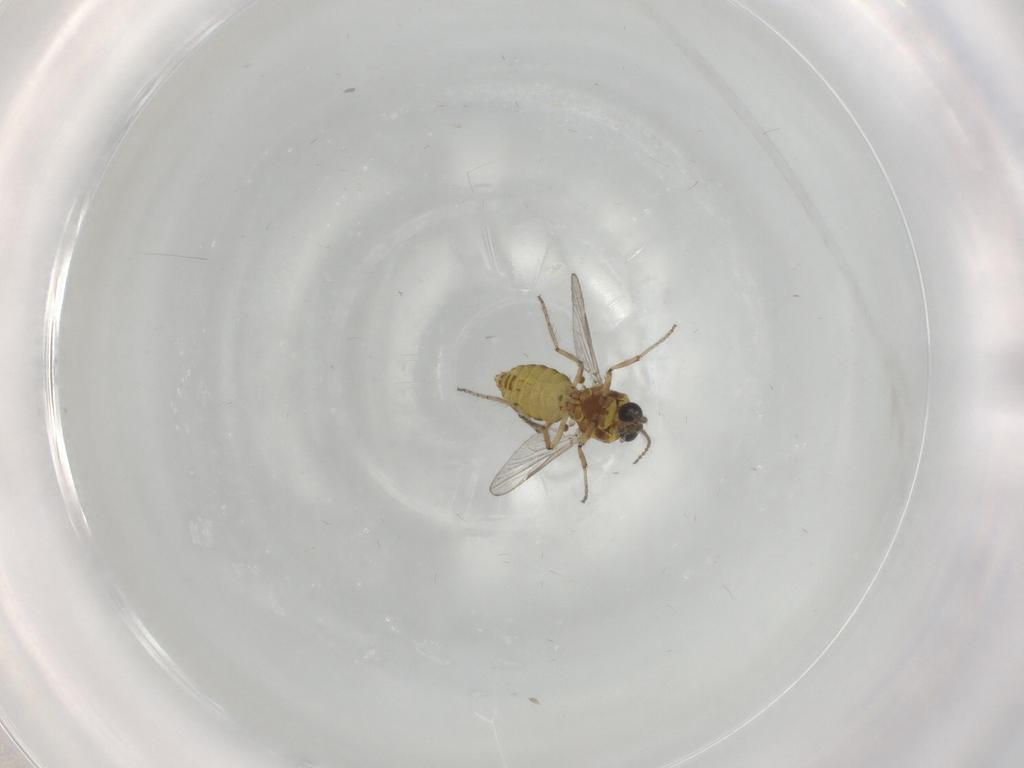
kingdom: Animalia
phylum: Arthropoda
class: Insecta
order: Diptera
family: Ceratopogonidae
